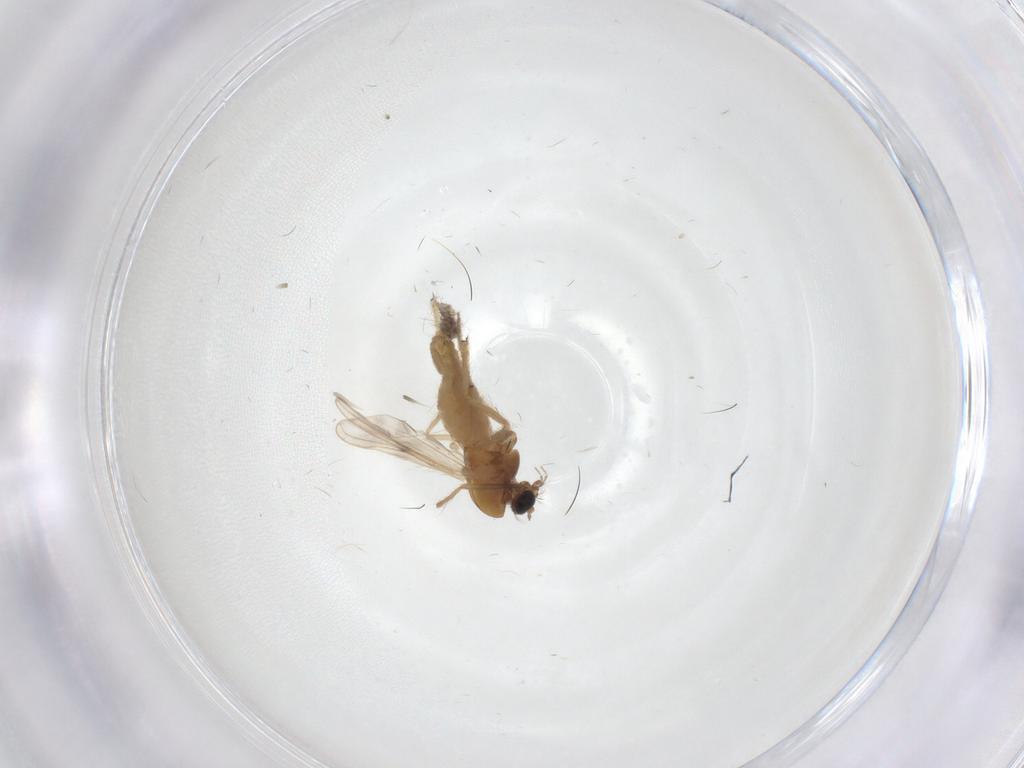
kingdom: Animalia
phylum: Arthropoda
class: Insecta
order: Diptera
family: Chironomidae
